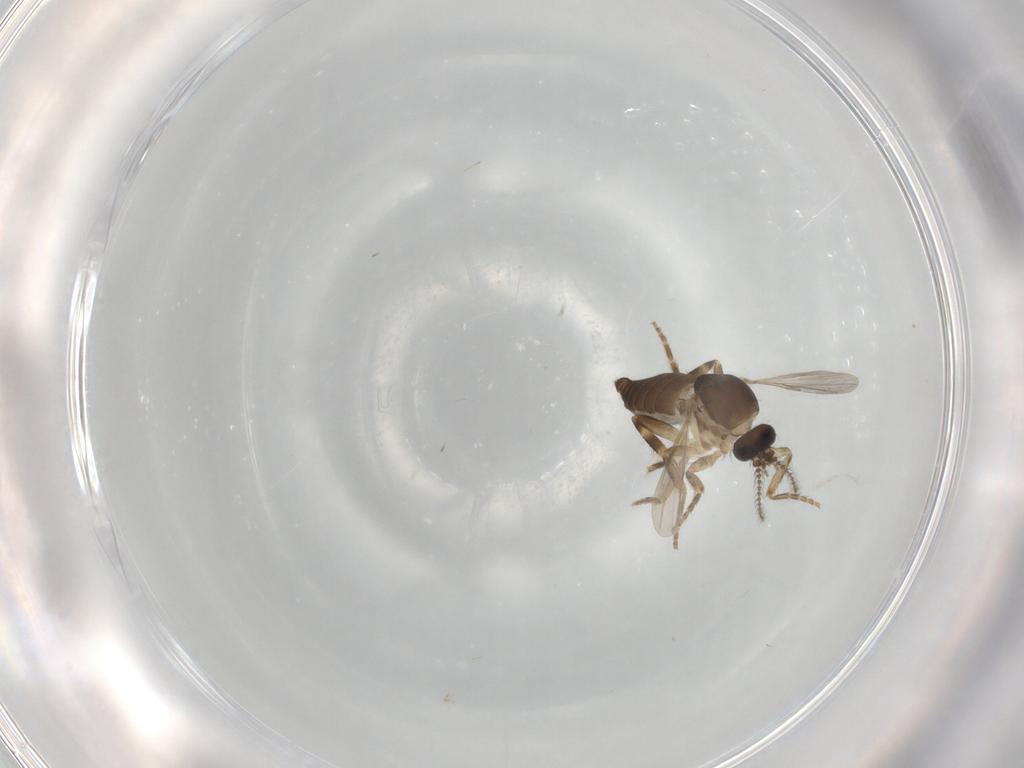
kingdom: Animalia
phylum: Arthropoda
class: Insecta
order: Diptera
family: Ceratopogonidae
